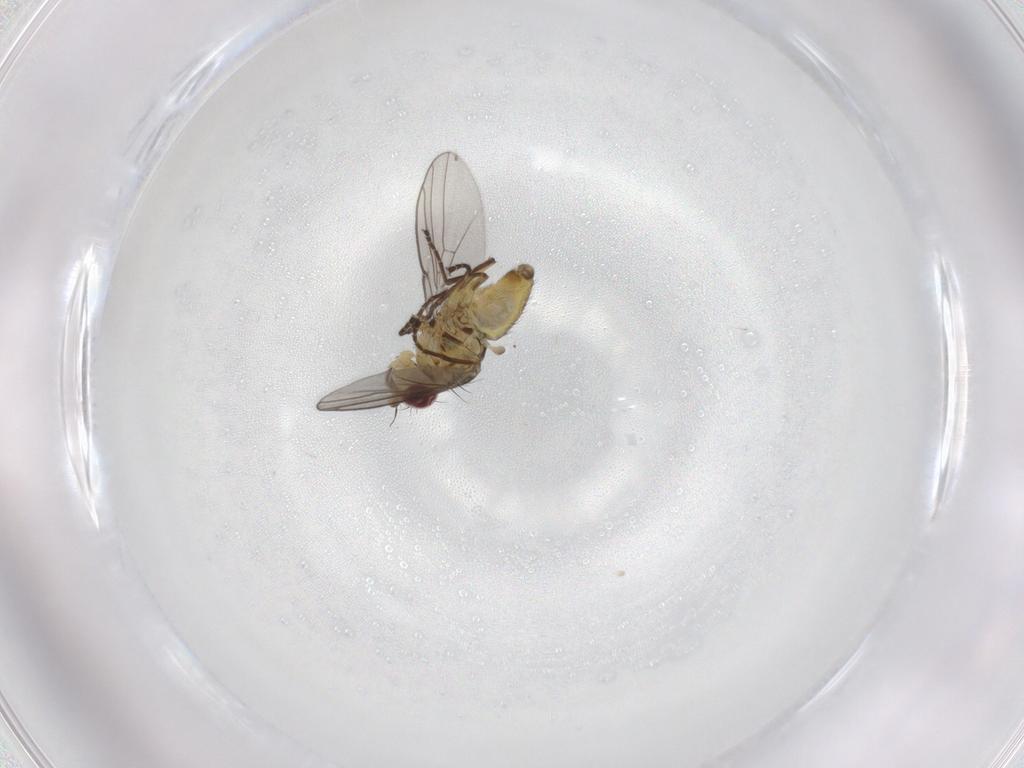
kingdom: Animalia
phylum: Arthropoda
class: Insecta
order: Diptera
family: Agromyzidae
